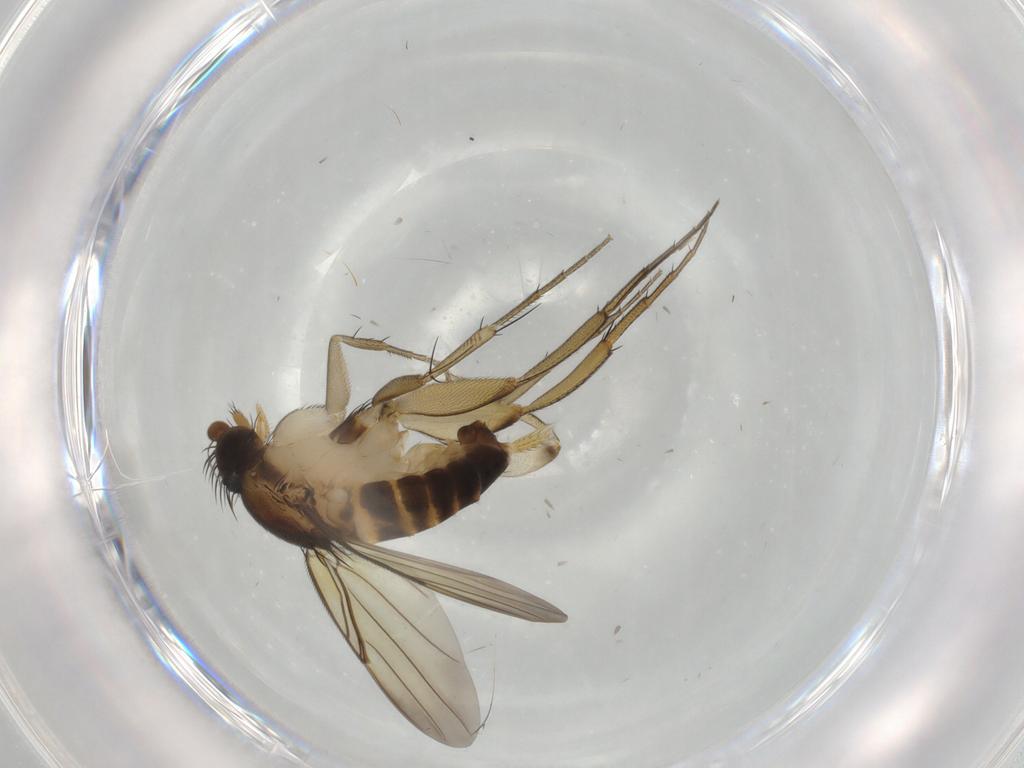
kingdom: Animalia
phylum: Arthropoda
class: Insecta
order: Diptera
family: Phoridae
